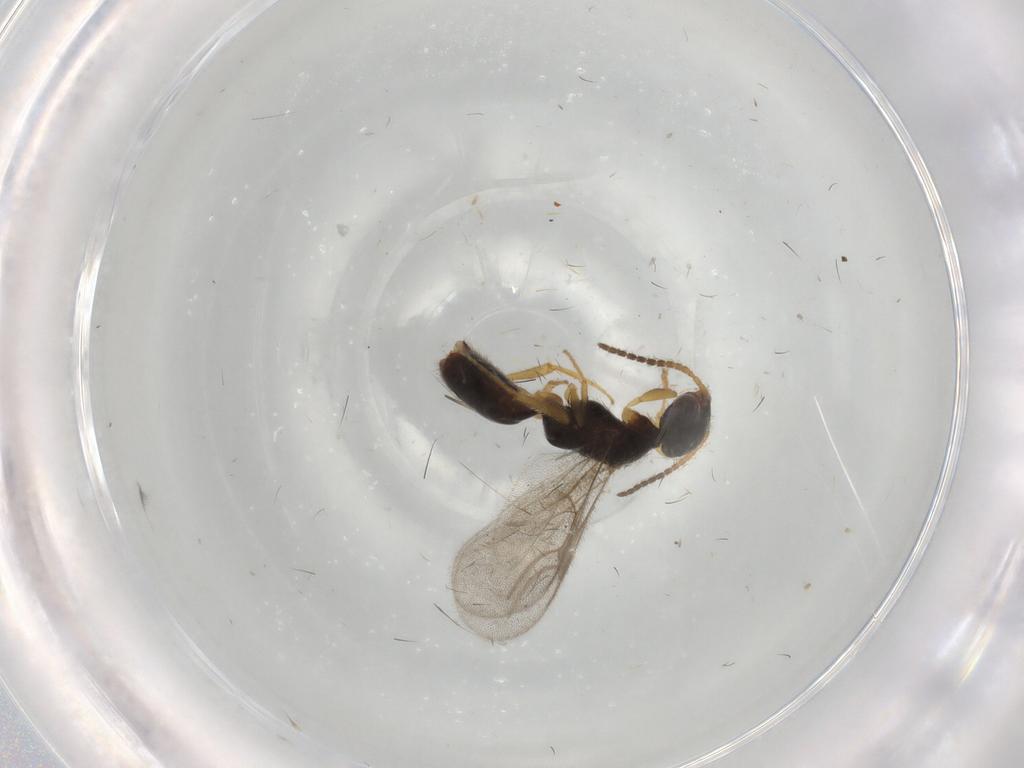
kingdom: Animalia
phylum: Arthropoda
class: Insecta
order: Hymenoptera
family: Bethylidae
